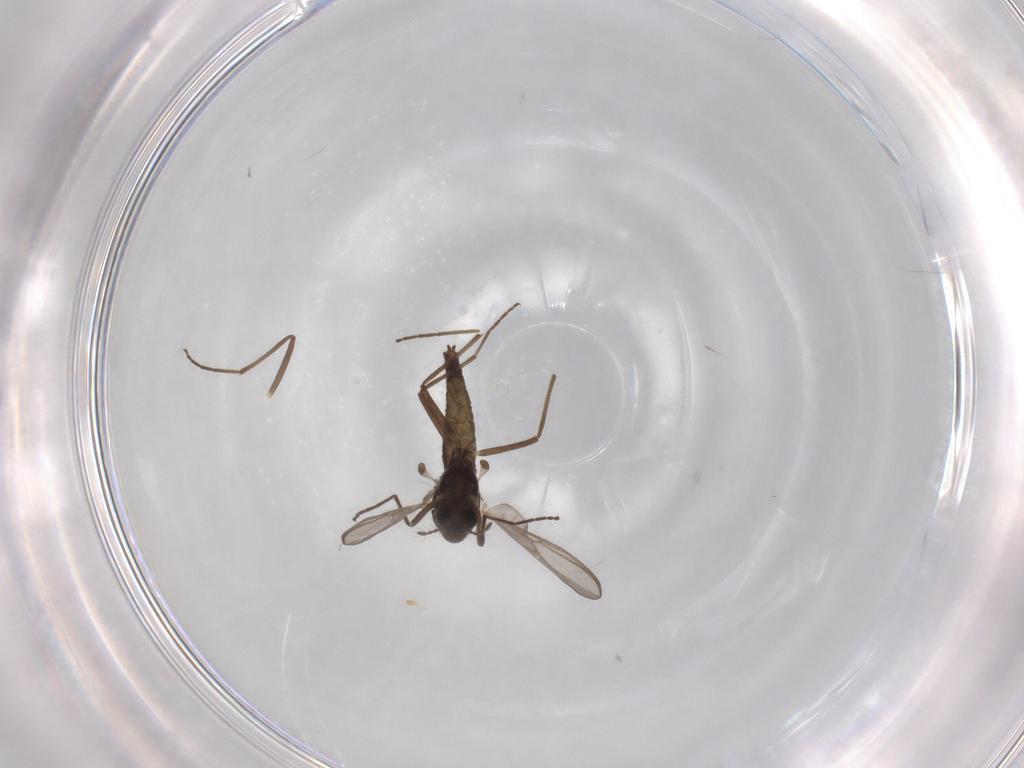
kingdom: Animalia
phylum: Arthropoda
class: Insecta
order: Diptera
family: Chironomidae
